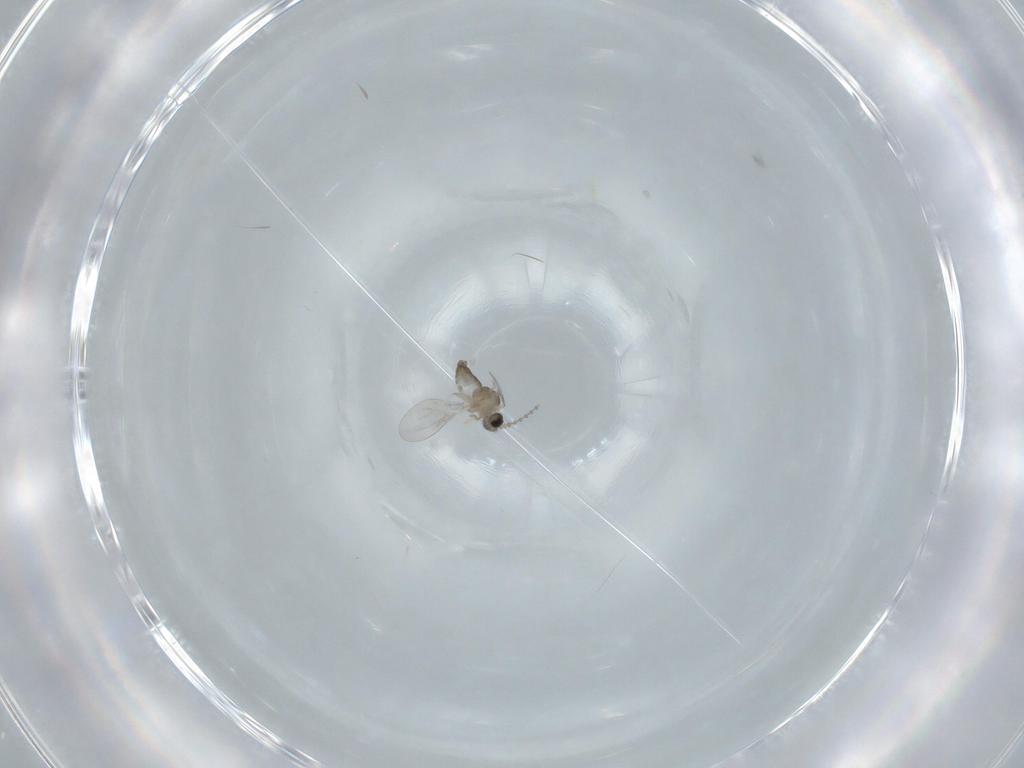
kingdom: Animalia
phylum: Arthropoda
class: Insecta
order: Diptera
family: Cecidomyiidae
